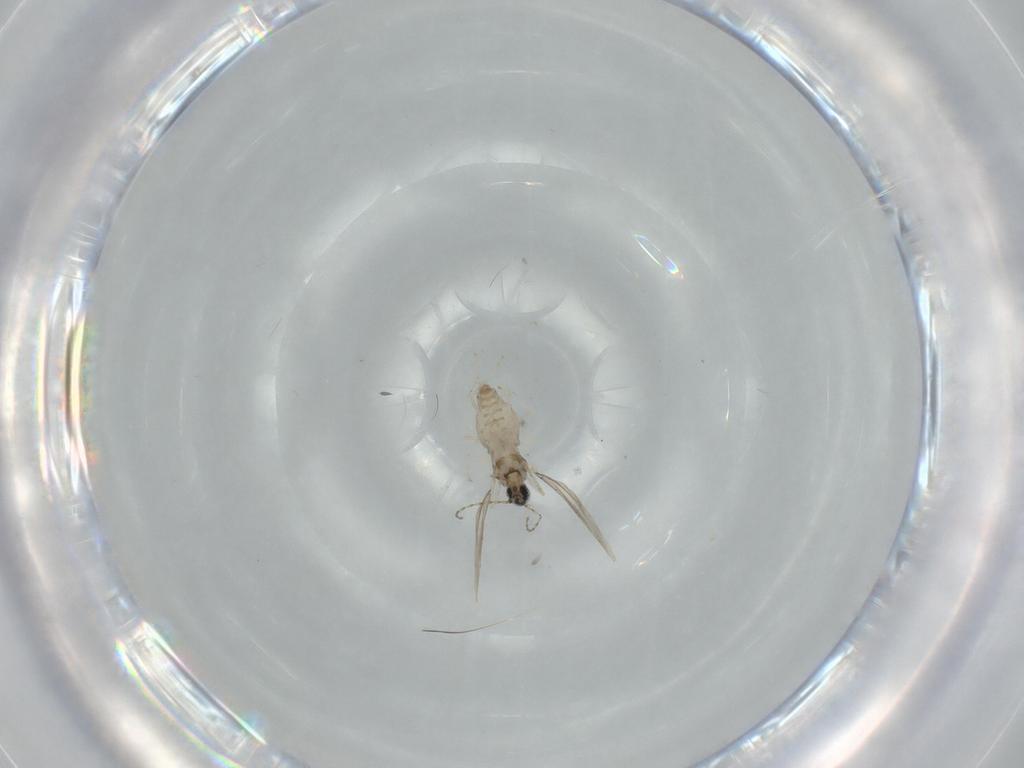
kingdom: Animalia
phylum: Arthropoda
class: Insecta
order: Diptera
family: Cecidomyiidae
